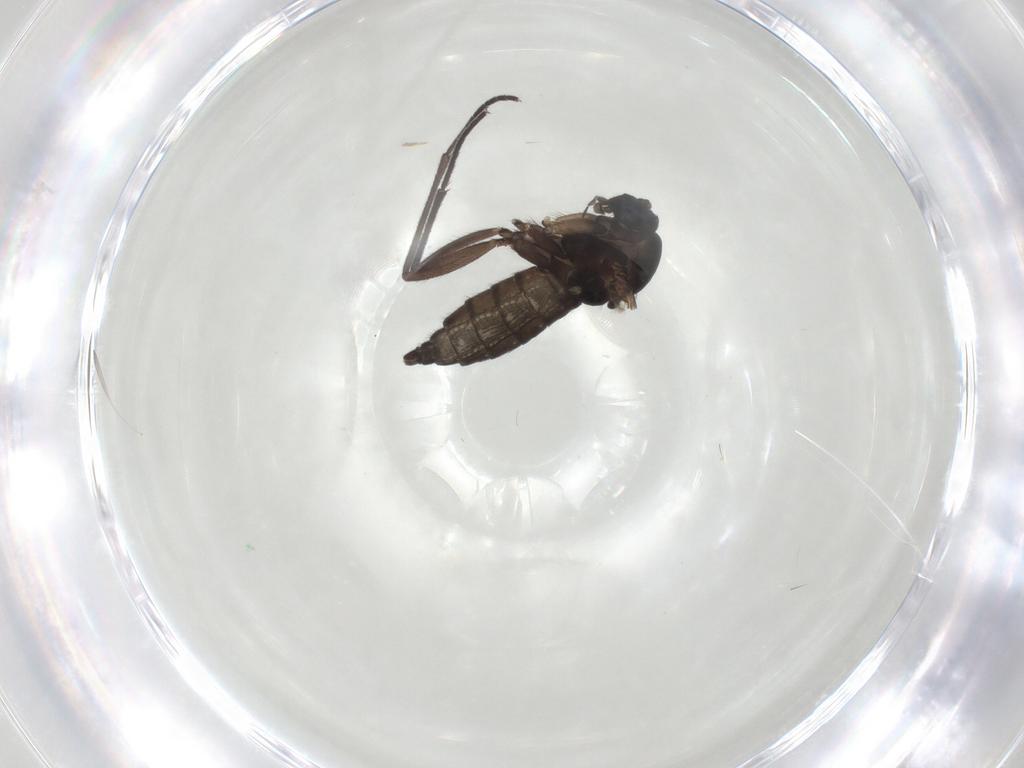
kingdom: Animalia
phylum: Arthropoda
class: Insecta
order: Diptera
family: Sciaridae
